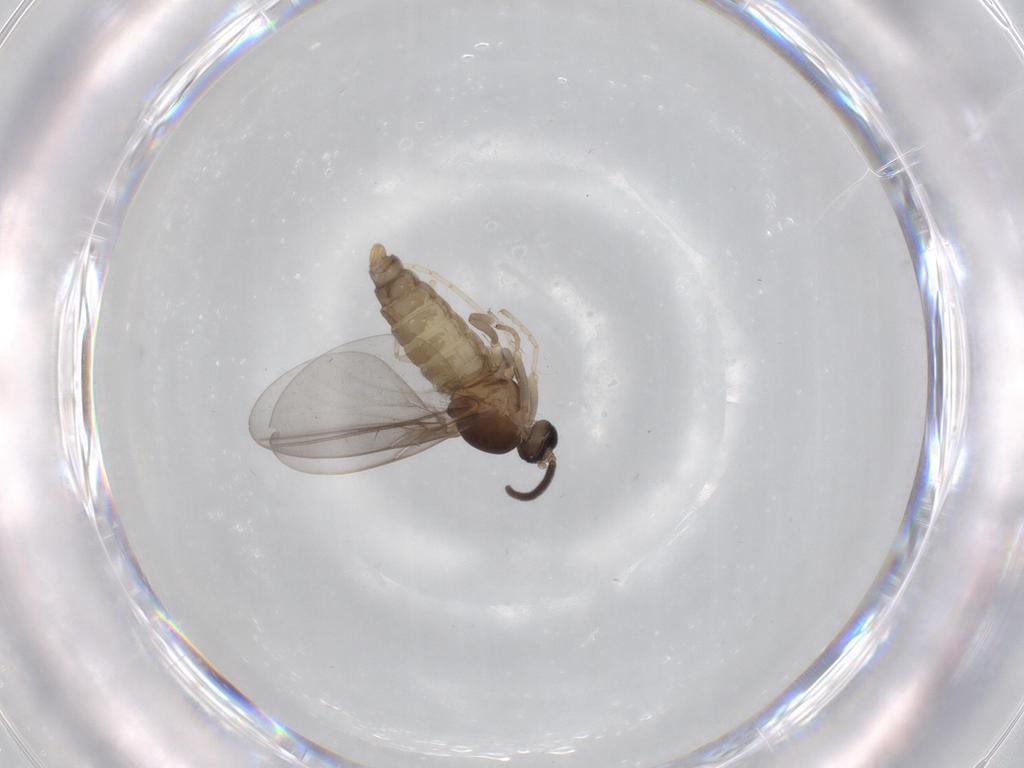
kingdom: Animalia
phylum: Arthropoda
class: Insecta
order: Diptera
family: Cecidomyiidae
